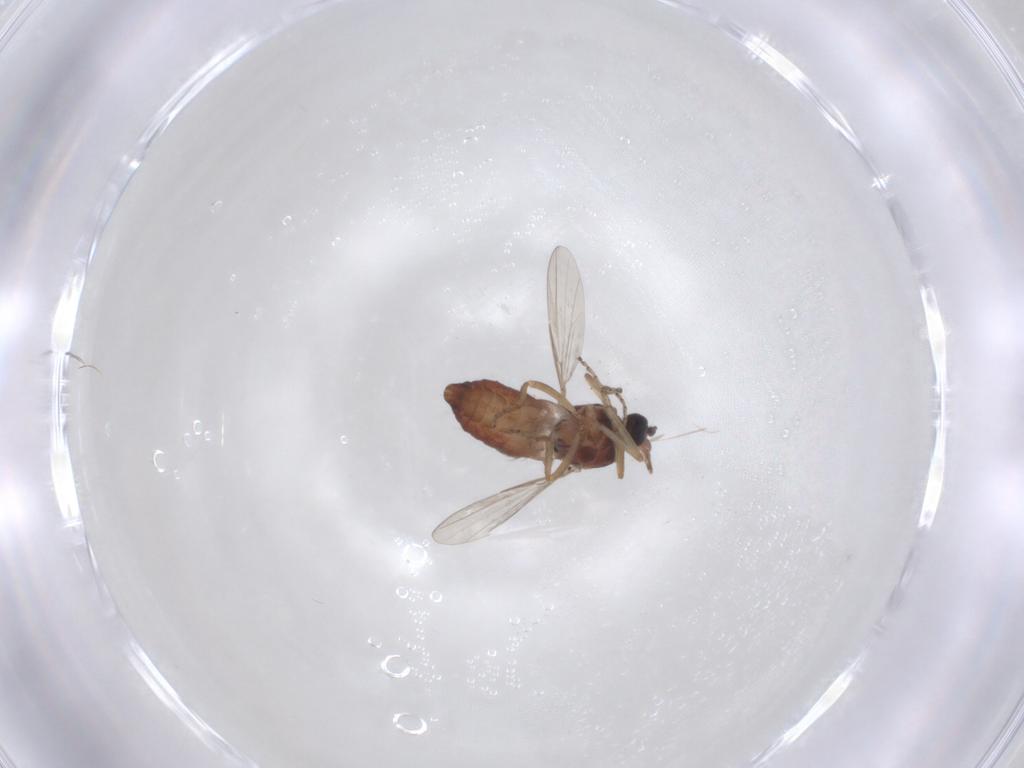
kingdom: Animalia
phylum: Arthropoda
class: Insecta
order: Diptera
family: Ceratopogonidae
